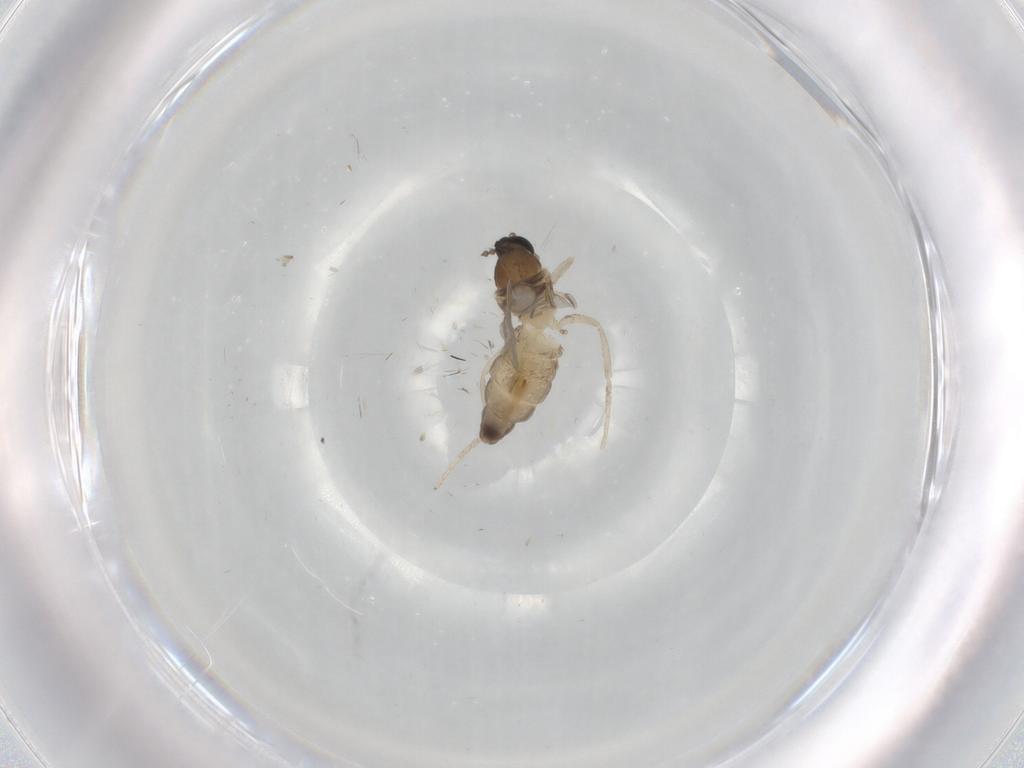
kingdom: Animalia
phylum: Arthropoda
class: Insecta
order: Diptera
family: Cecidomyiidae
